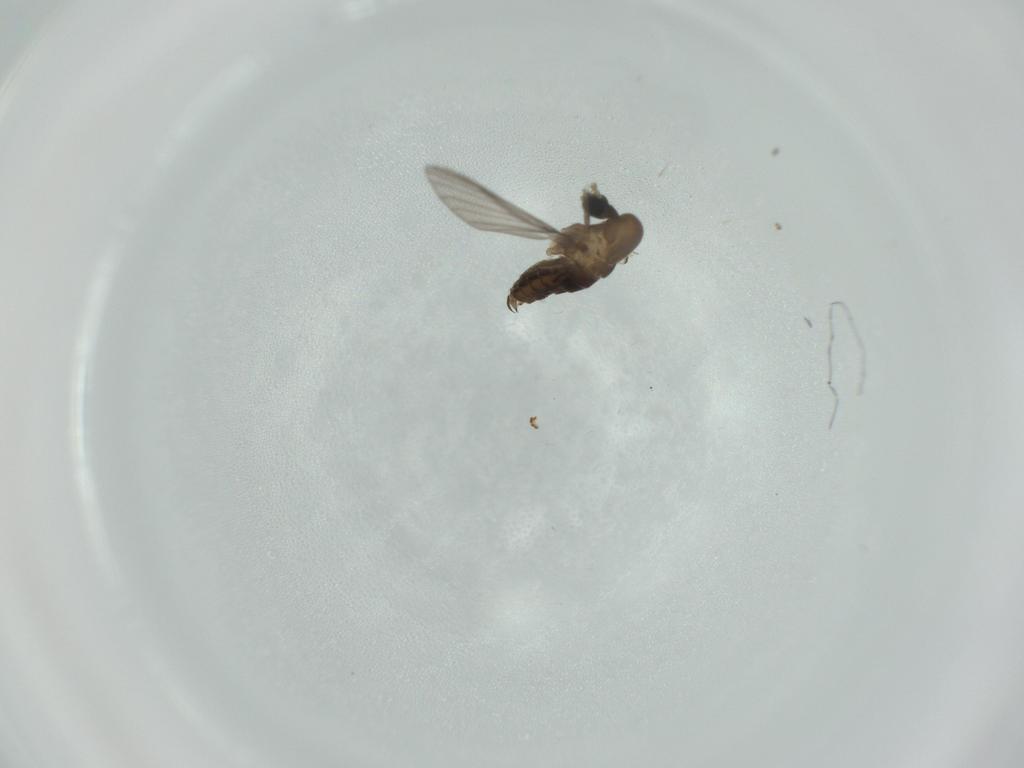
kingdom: Animalia
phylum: Arthropoda
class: Insecta
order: Diptera
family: Psychodidae
